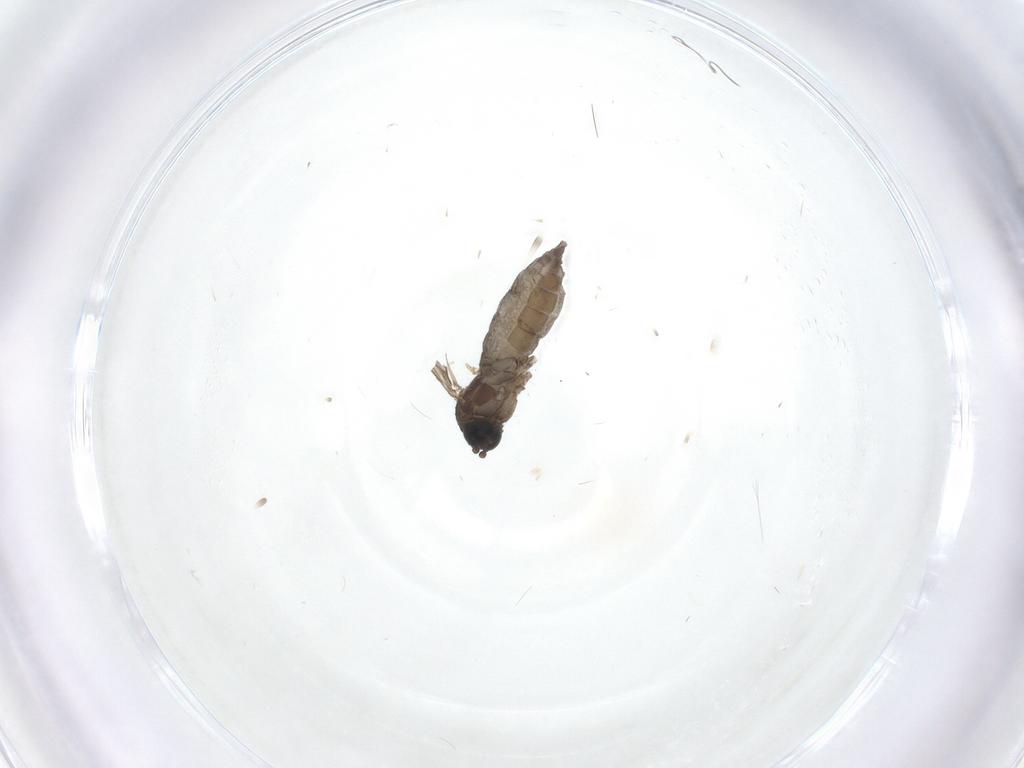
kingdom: Animalia
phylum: Arthropoda
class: Insecta
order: Diptera
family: Sciaridae
